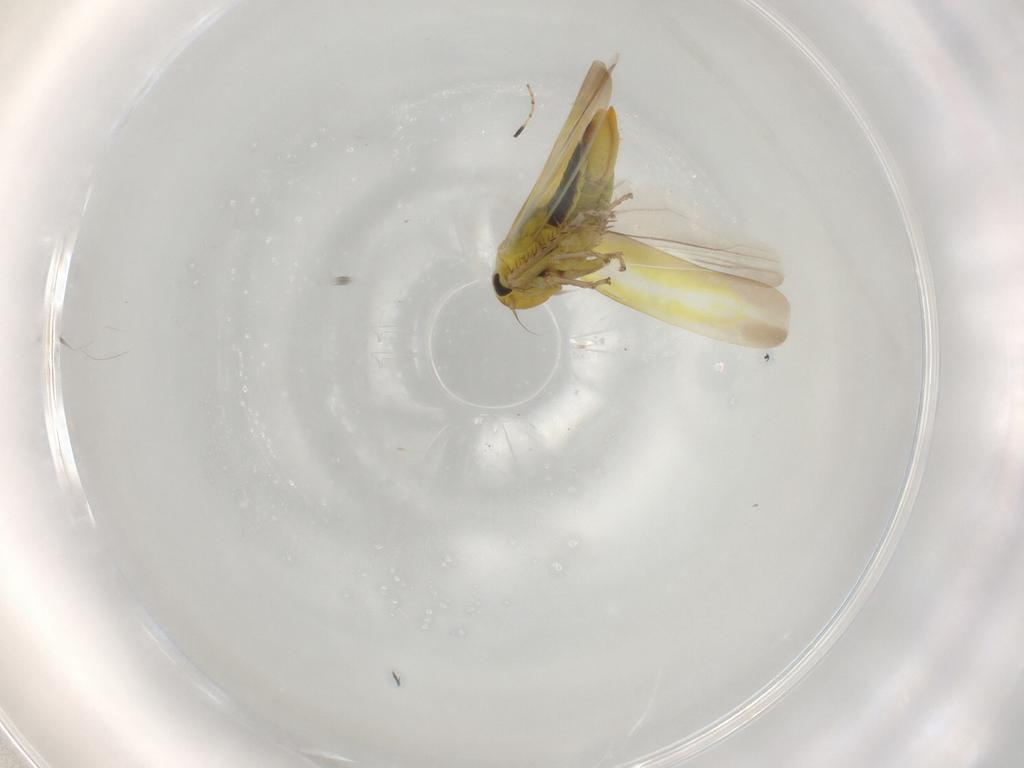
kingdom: Animalia
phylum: Arthropoda
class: Insecta
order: Hemiptera
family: Cicadellidae
